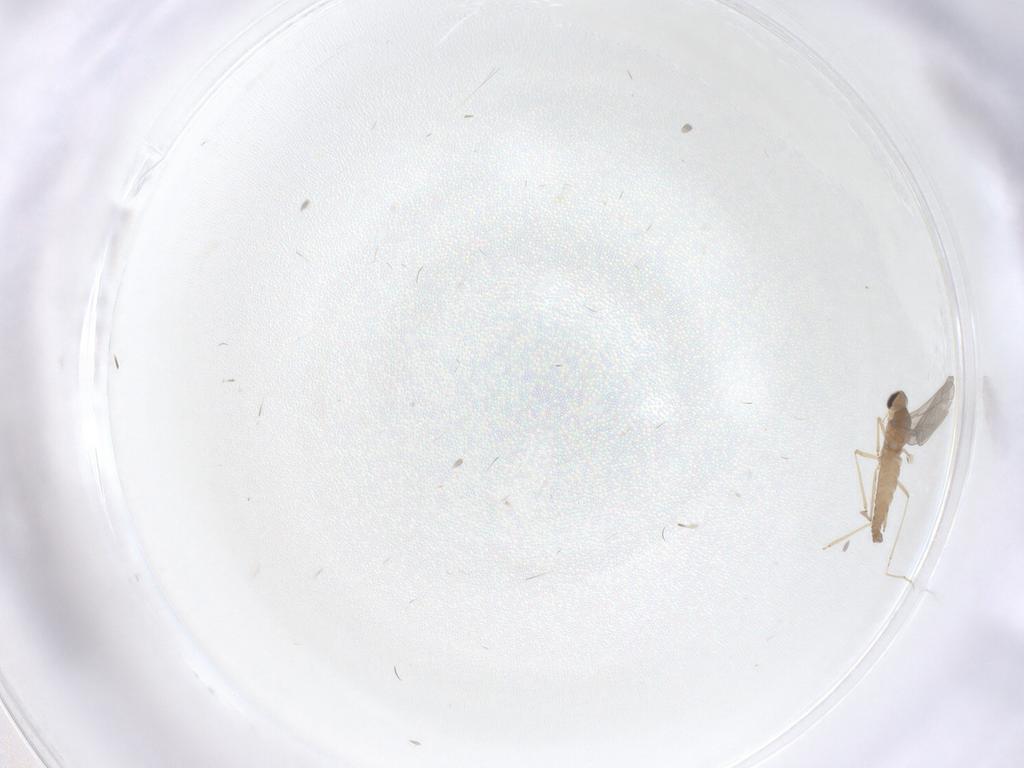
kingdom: Animalia
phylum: Arthropoda
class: Insecta
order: Diptera
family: Cecidomyiidae
